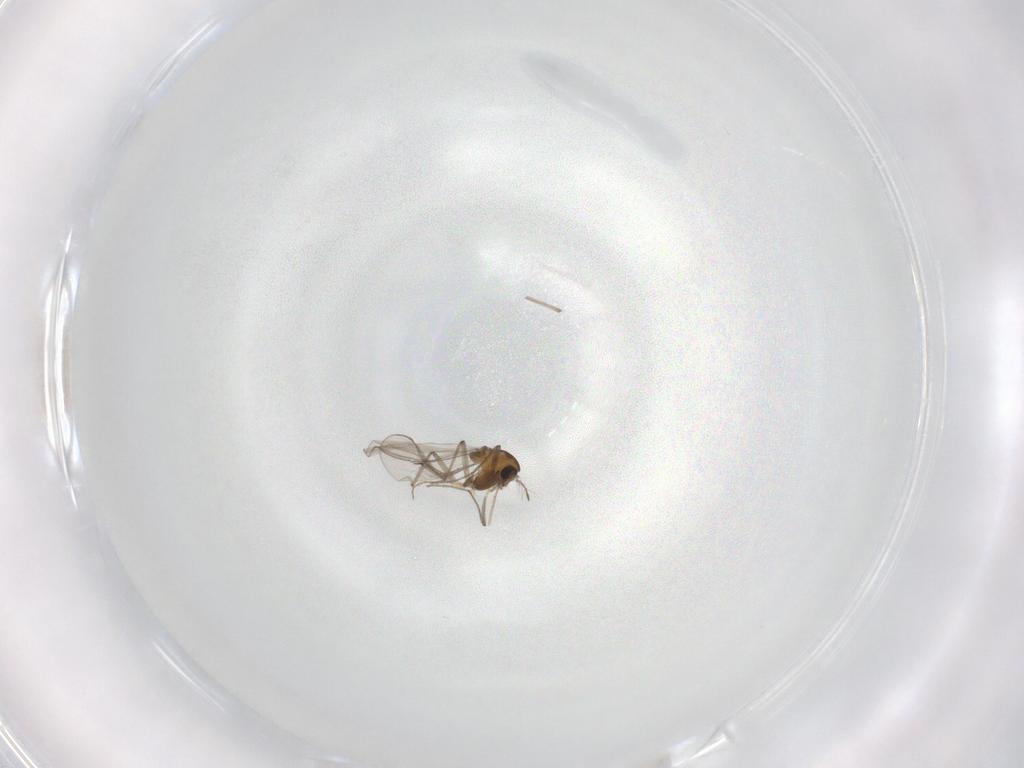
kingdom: Animalia
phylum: Arthropoda
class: Insecta
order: Diptera
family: Chironomidae
